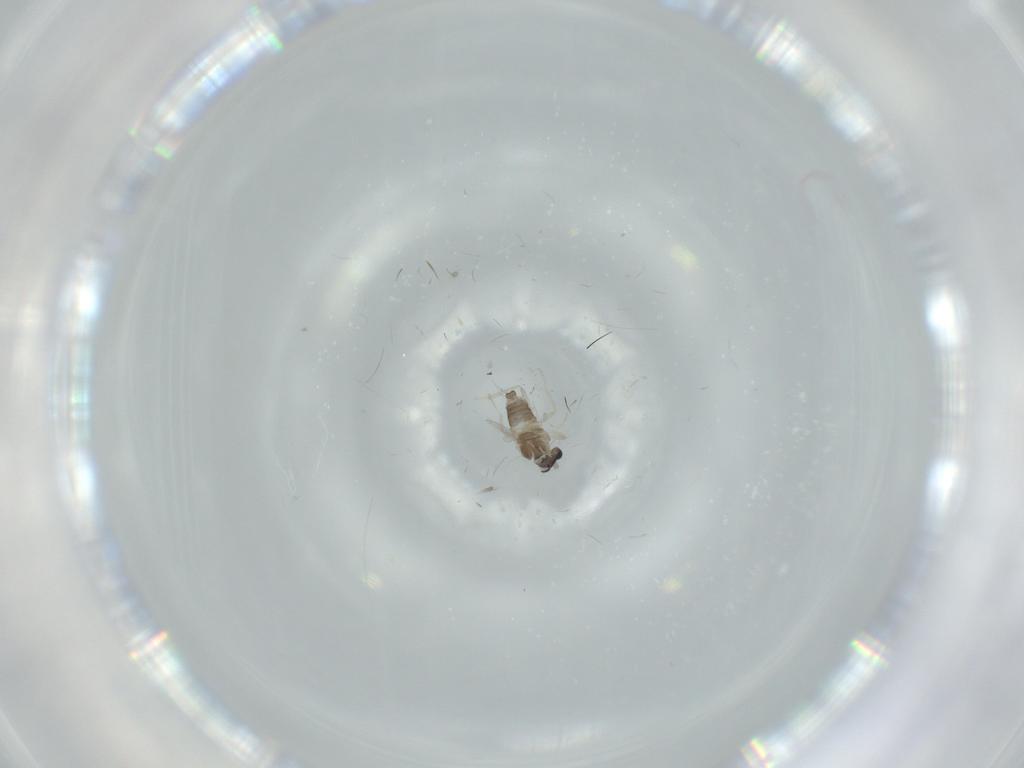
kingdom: Animalia
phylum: Arthropoda
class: Insecta
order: Diptera
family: Cecidomyiidae
